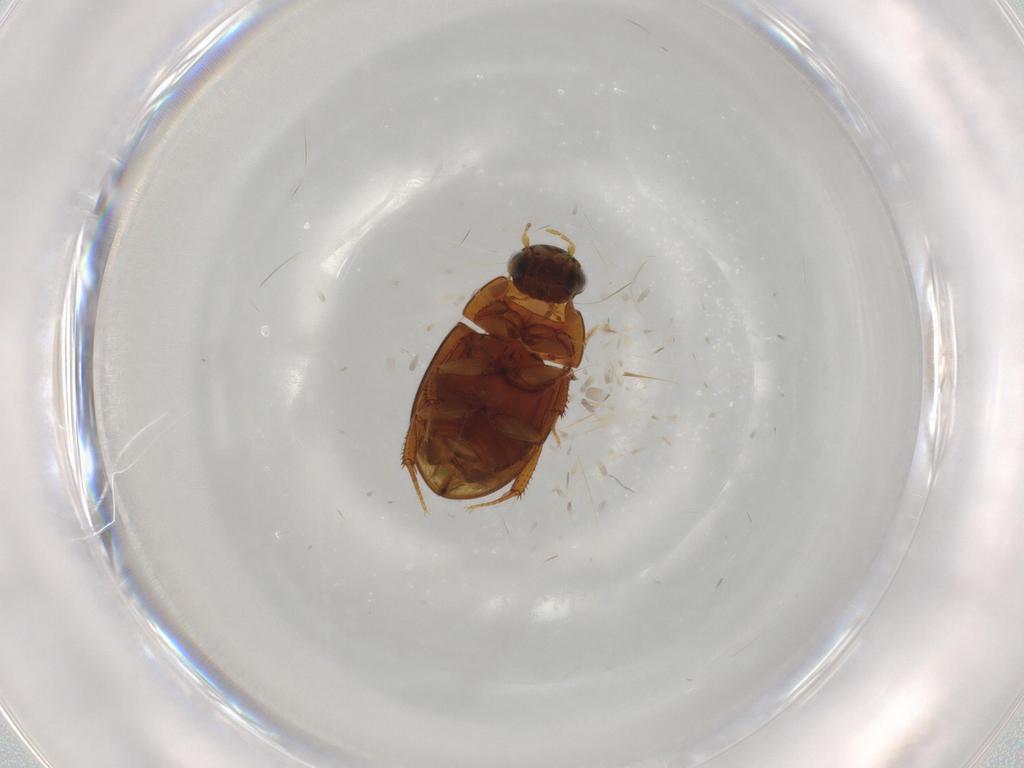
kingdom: Animalia
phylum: Arthropoda
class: Insecta
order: Coleoptera
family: Hydrophilidae
